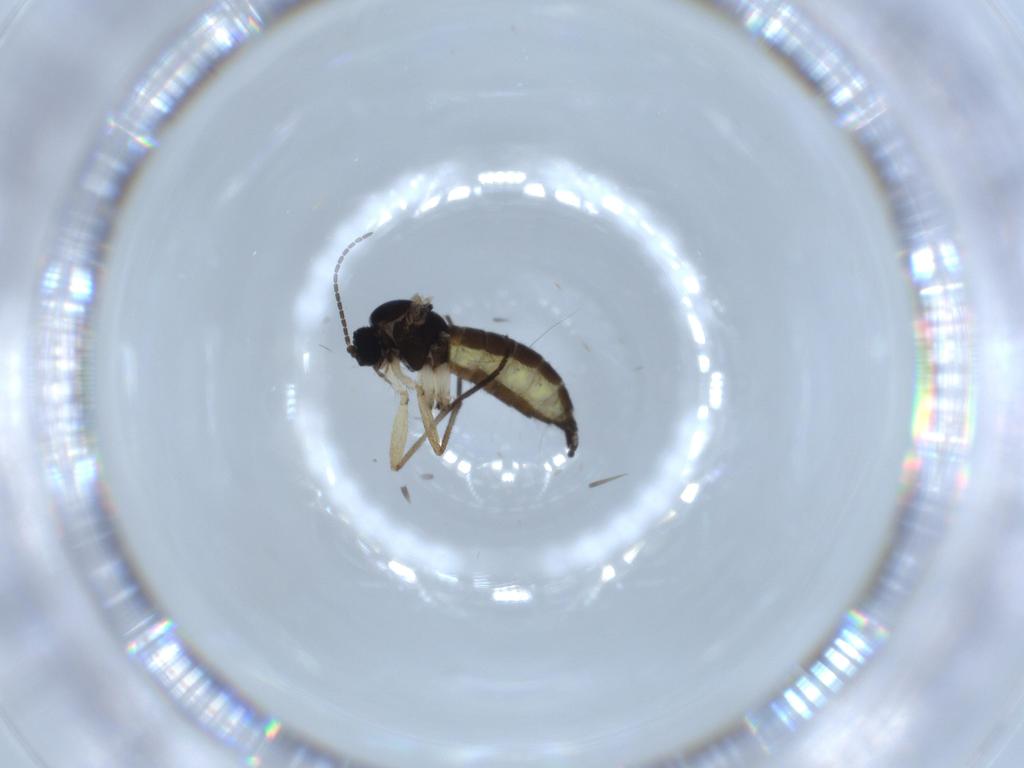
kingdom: Animalia
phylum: Arthropoda
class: Insecta
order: Diptera
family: Sciaridae
